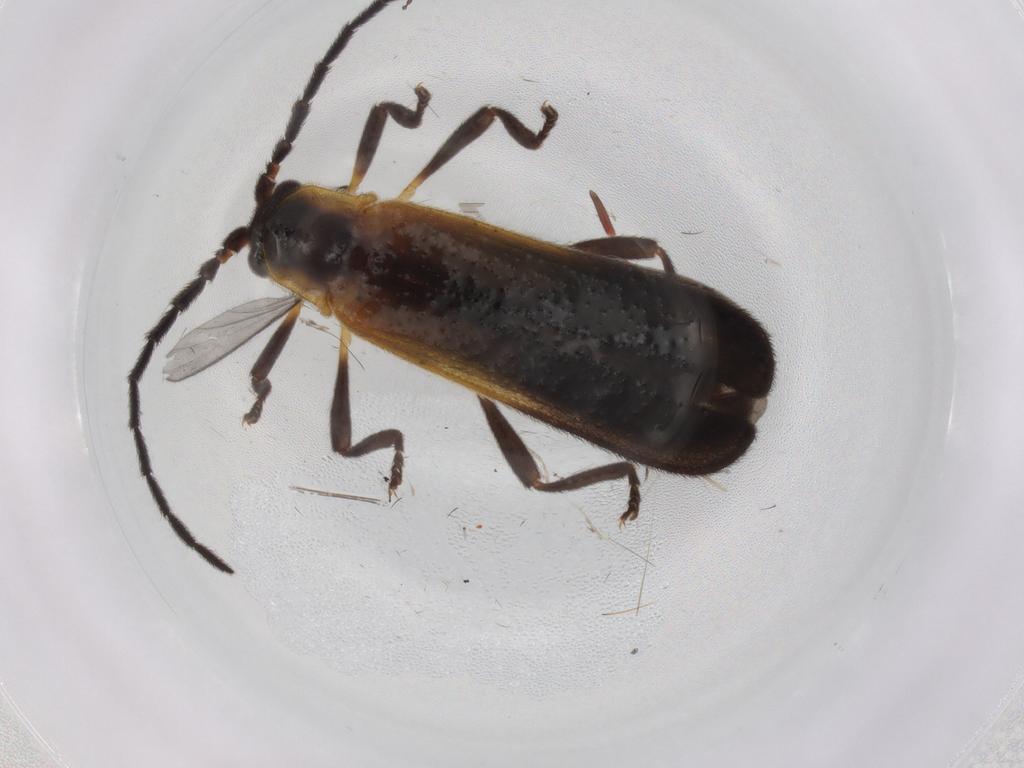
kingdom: Animalia
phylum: Arthropoda
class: Insecta
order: Coleoptera
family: Lycidae
